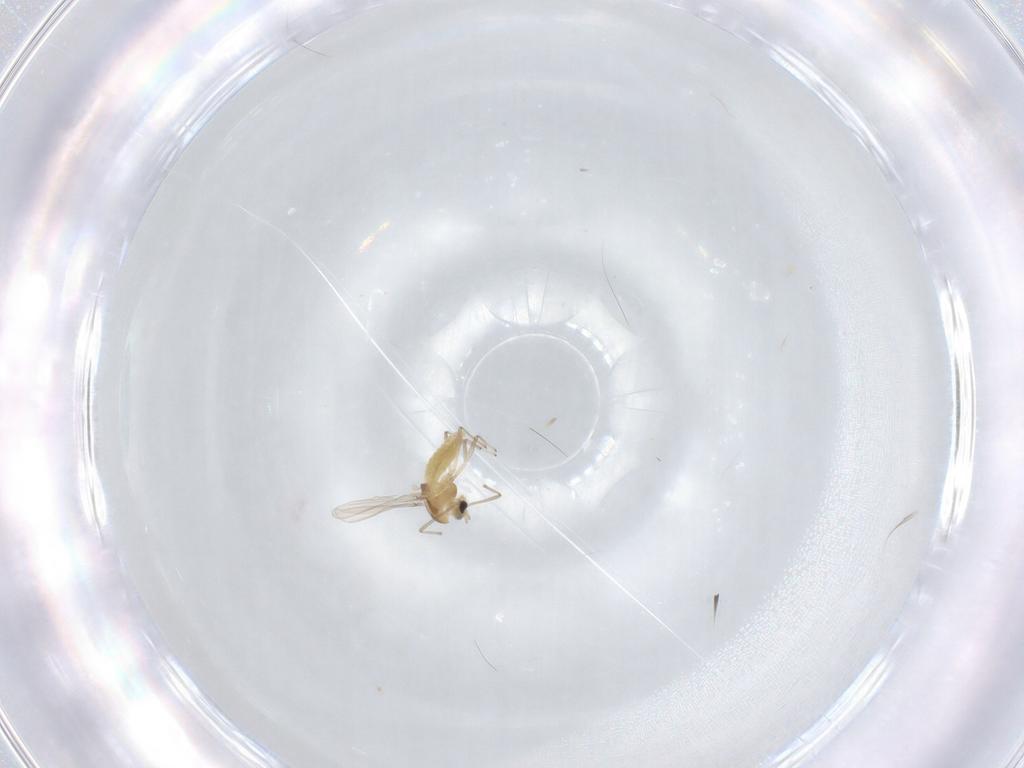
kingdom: Animalia
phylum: Arthropoda
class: Insecta
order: Diptera
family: Chironomidae
